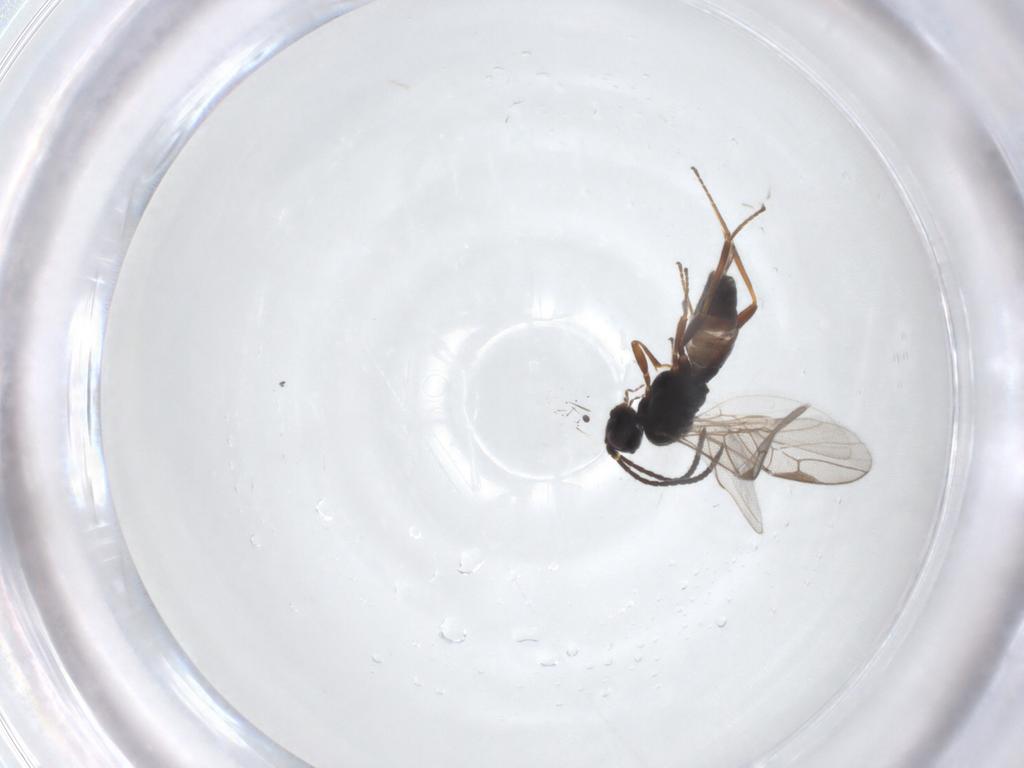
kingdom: Animalia
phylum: Arthropoda
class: Insecta
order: Hymenoptera
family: Braconidae
